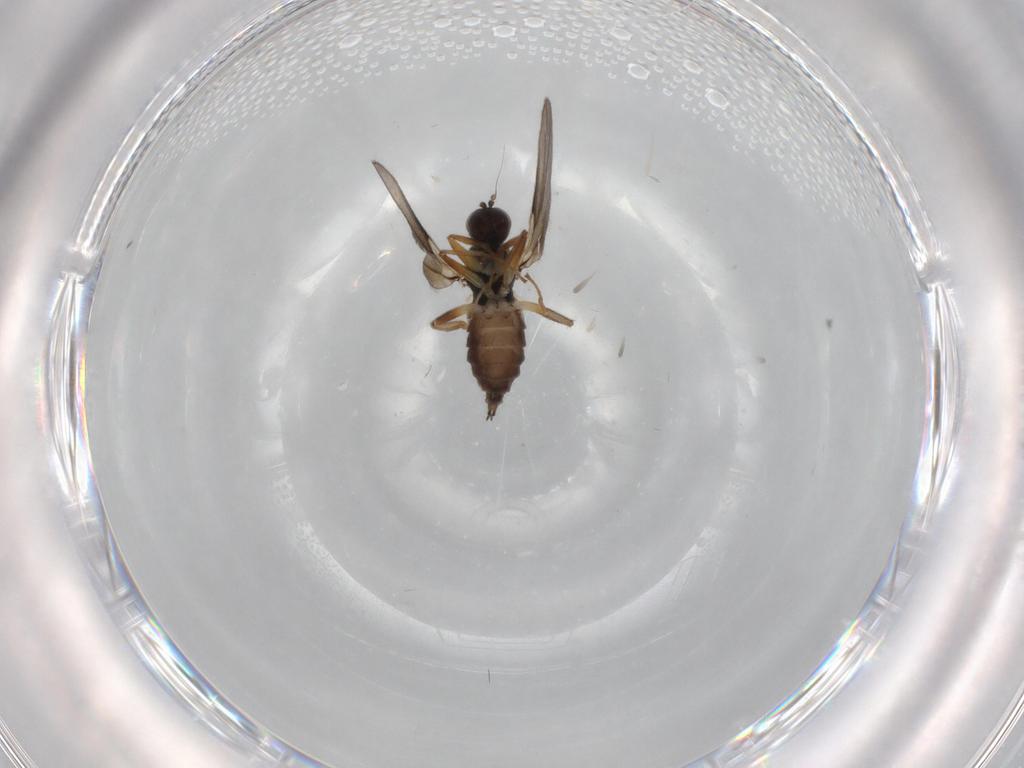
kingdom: Animalia
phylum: Arthropoda
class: Insecta
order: Diptera
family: Hybotidae
